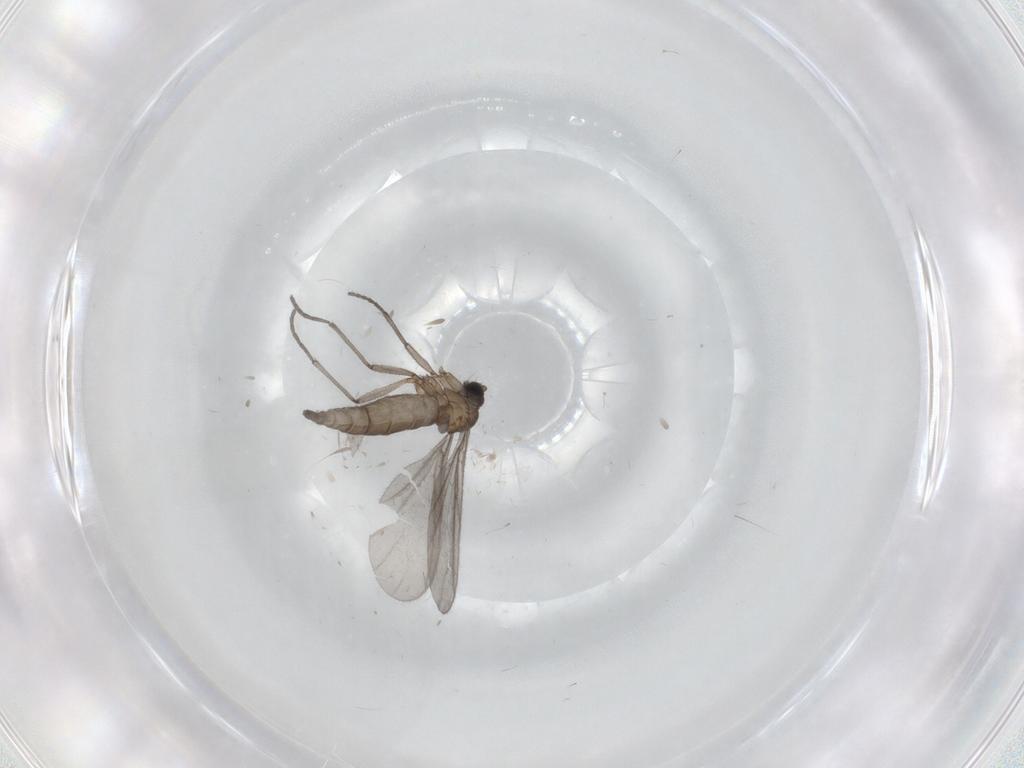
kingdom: Animalia
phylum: Arthropoda
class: Insecta
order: Diptera
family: Sciaridae
